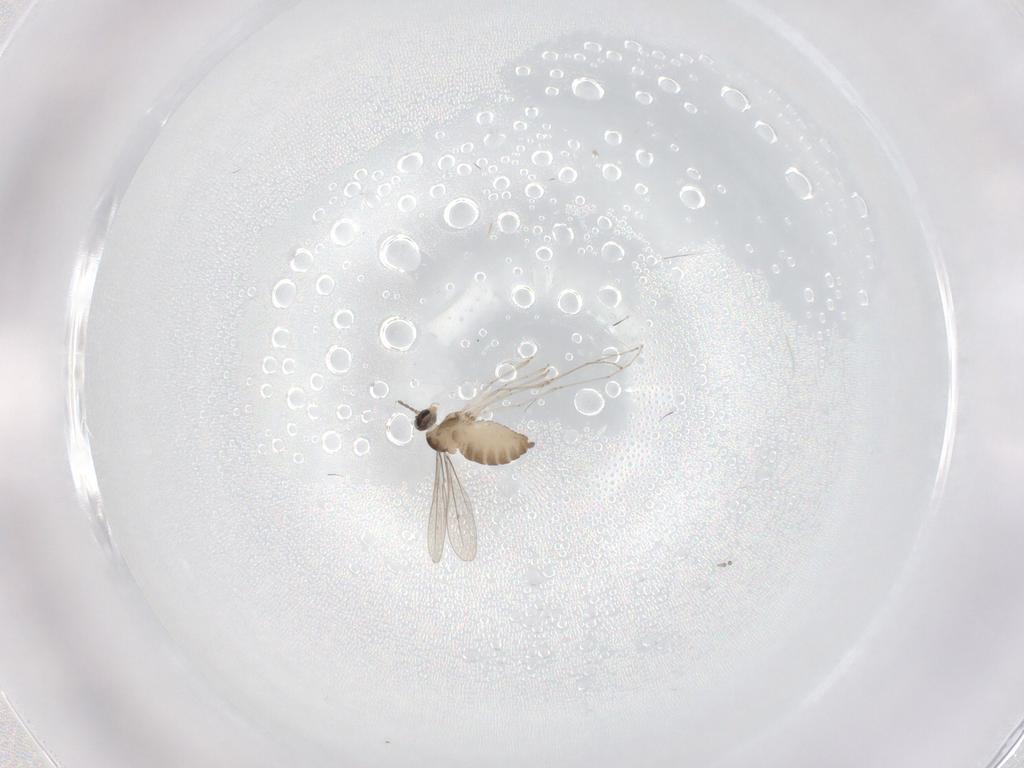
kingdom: Animalia
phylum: Arthropoda
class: Insecta
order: Diptera
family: Cecidomyiidae
